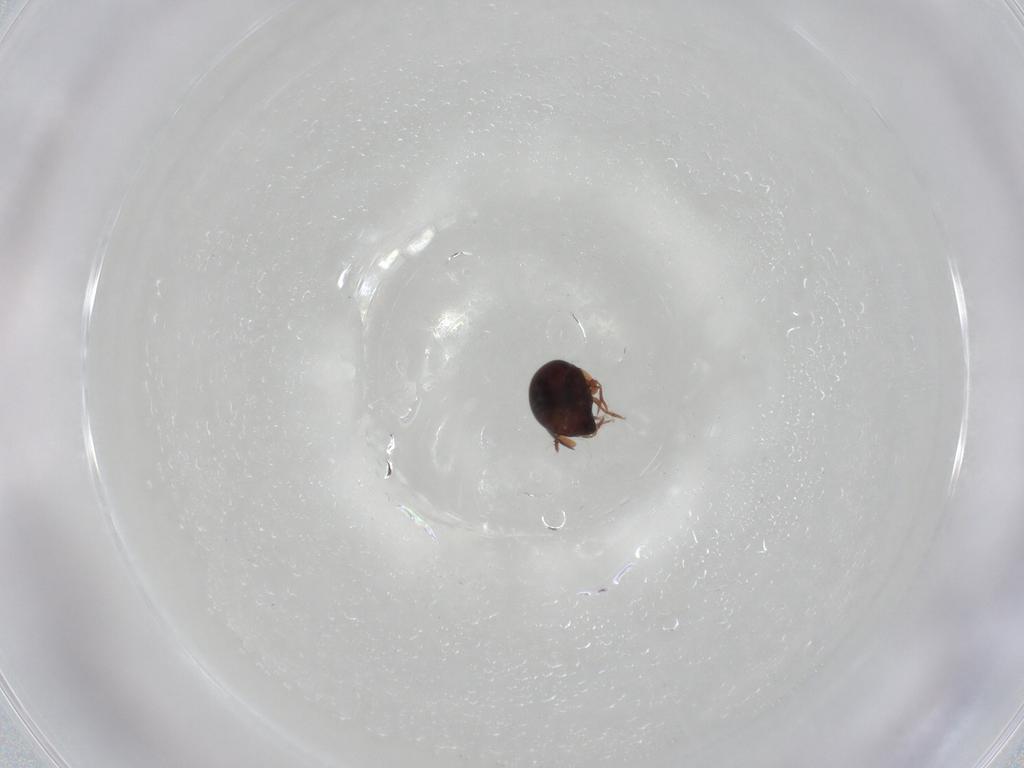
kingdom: Animalia
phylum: Arthropoda
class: Arachnida
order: Sarcoptiformes
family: Galumnidae
